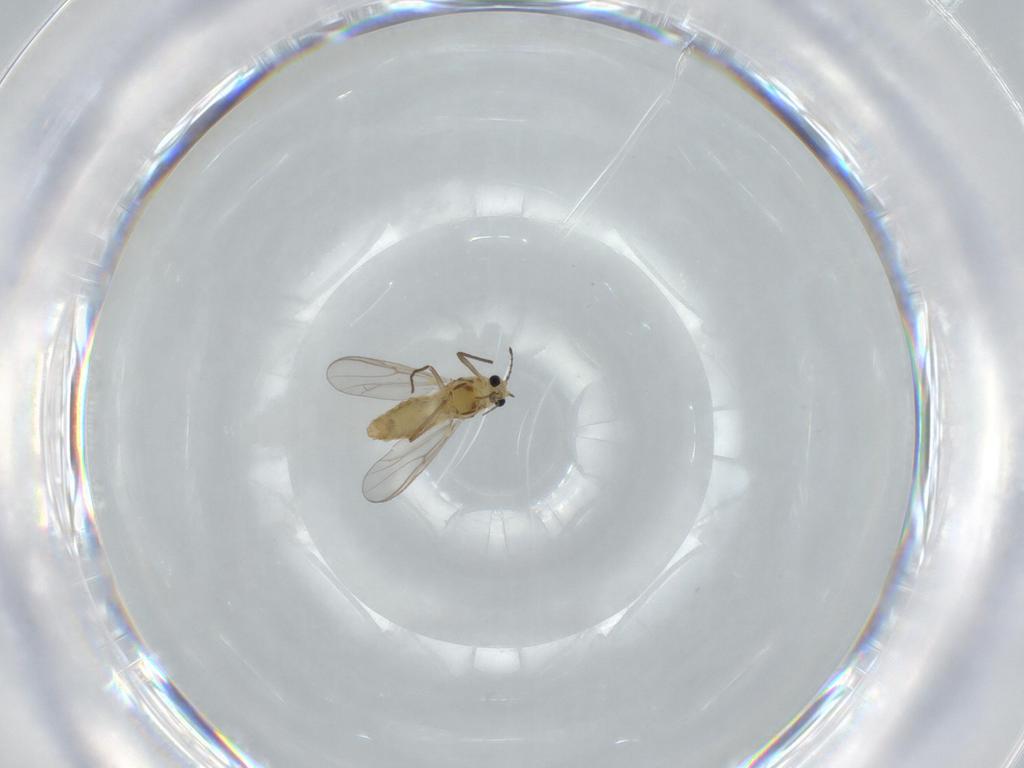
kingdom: Animalia
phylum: Arthropoda
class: Insecta
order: Diptera
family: Chironomidae
